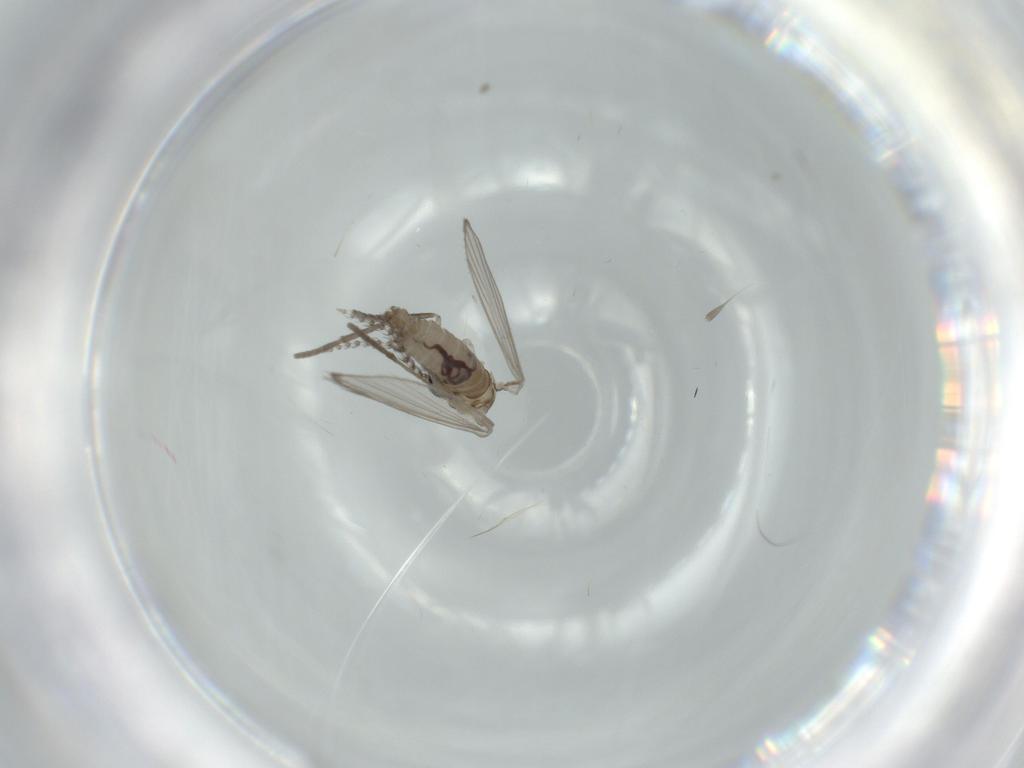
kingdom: Animalia
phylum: Arthropoda
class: Insecta
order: Diptera
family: Psychodidae
